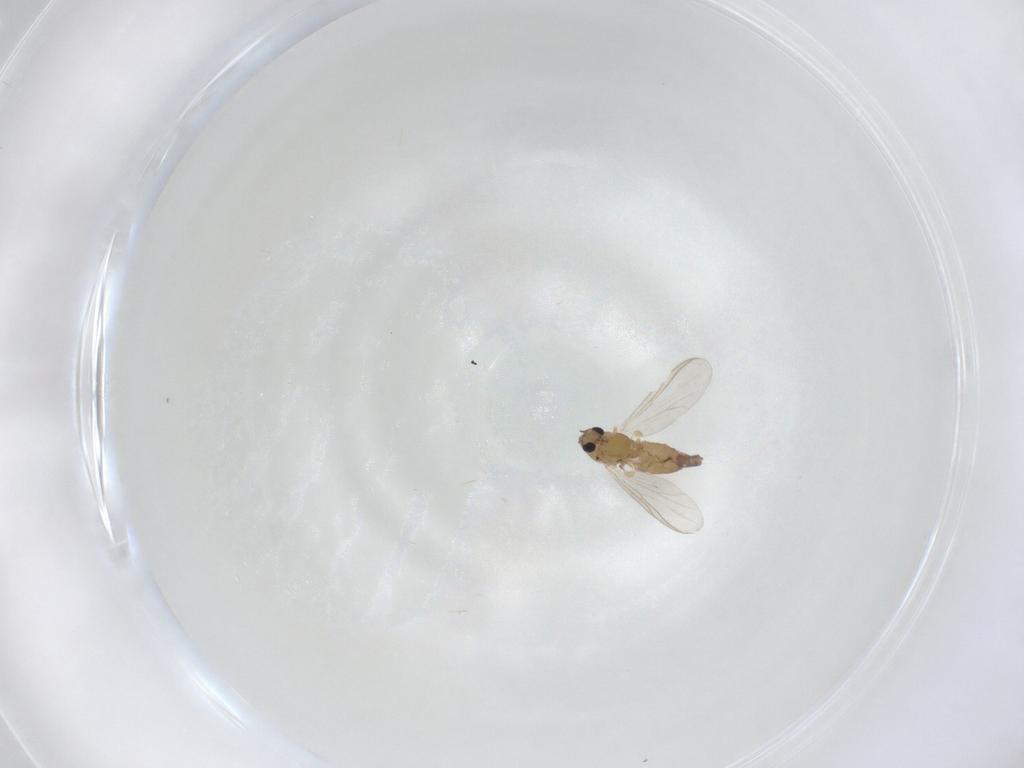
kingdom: Animalia
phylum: Arthropoda
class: Insecta
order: Diptera
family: Chironomidae
